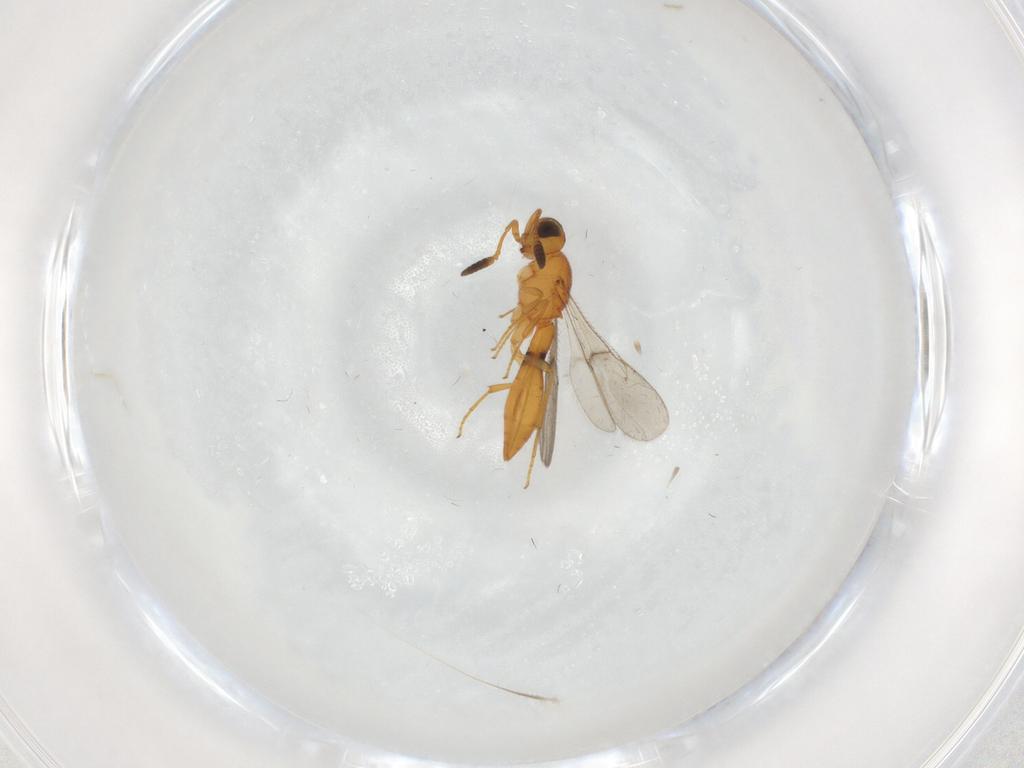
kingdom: Animalia
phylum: Arthropoda
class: Insecta
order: Hymenoptera
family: Scelionidae
